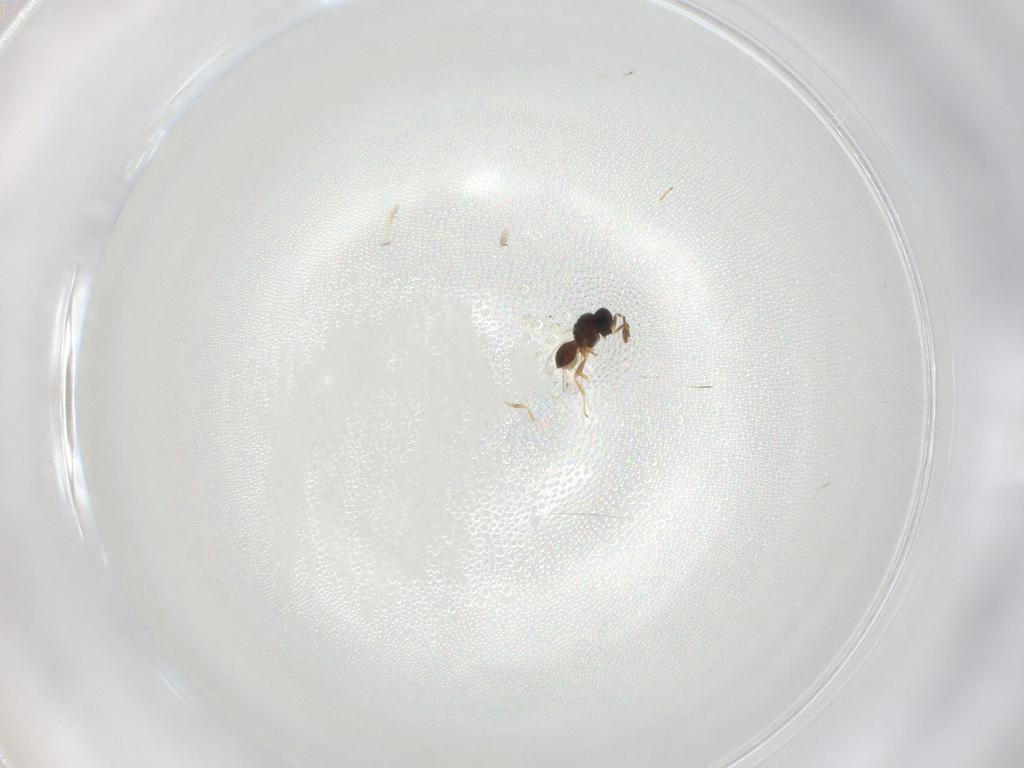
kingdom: Animalia
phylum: Arthropoda
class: Insecta
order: Hymenoptera
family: Scelionidae
